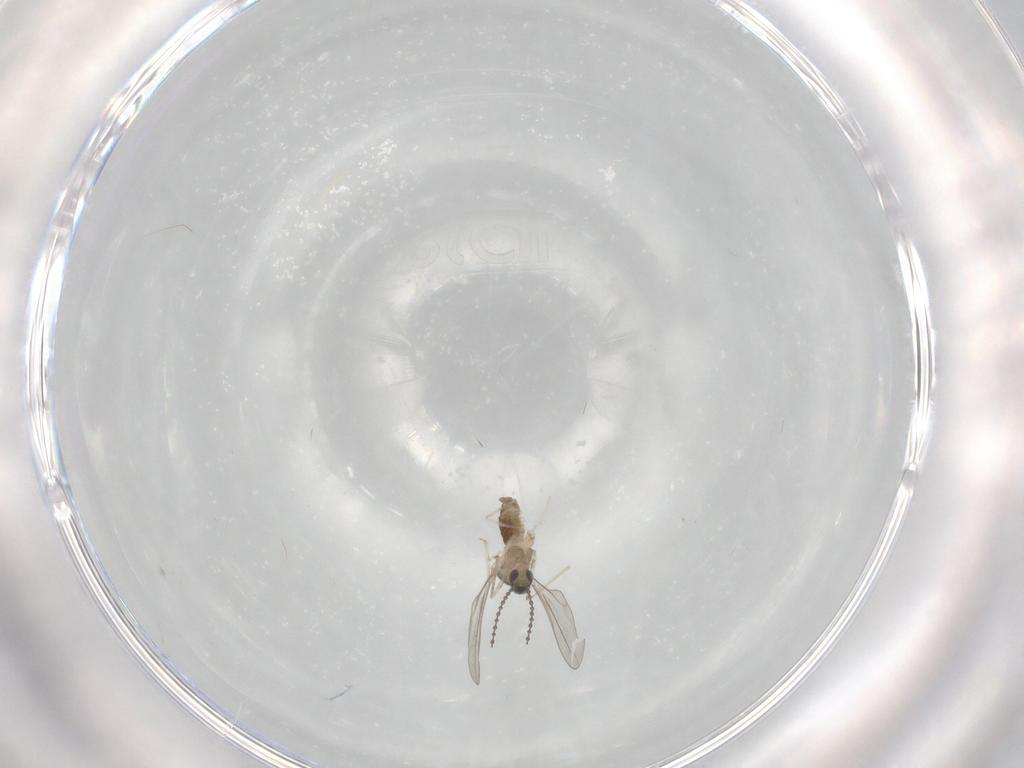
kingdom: Animalia
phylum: Arthropoda
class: Insecta
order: Diptera
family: Cecidomyiidae
